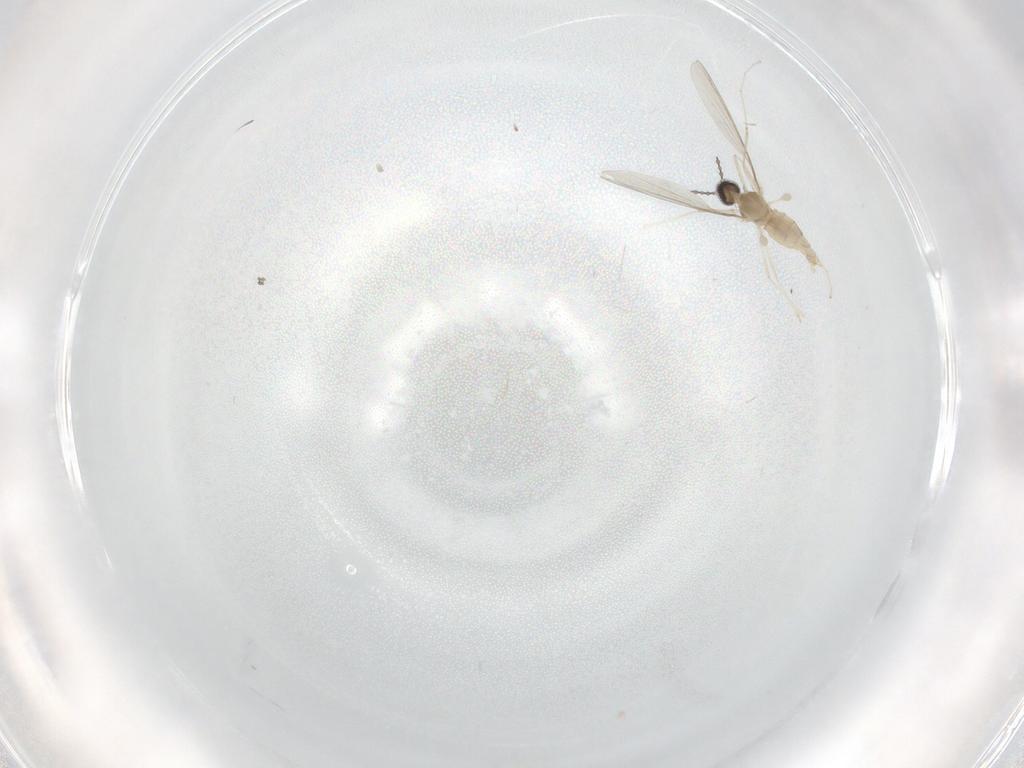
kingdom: Animalia
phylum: Arthropoda
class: Insecta
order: Diptera
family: Cecidomyiidae
